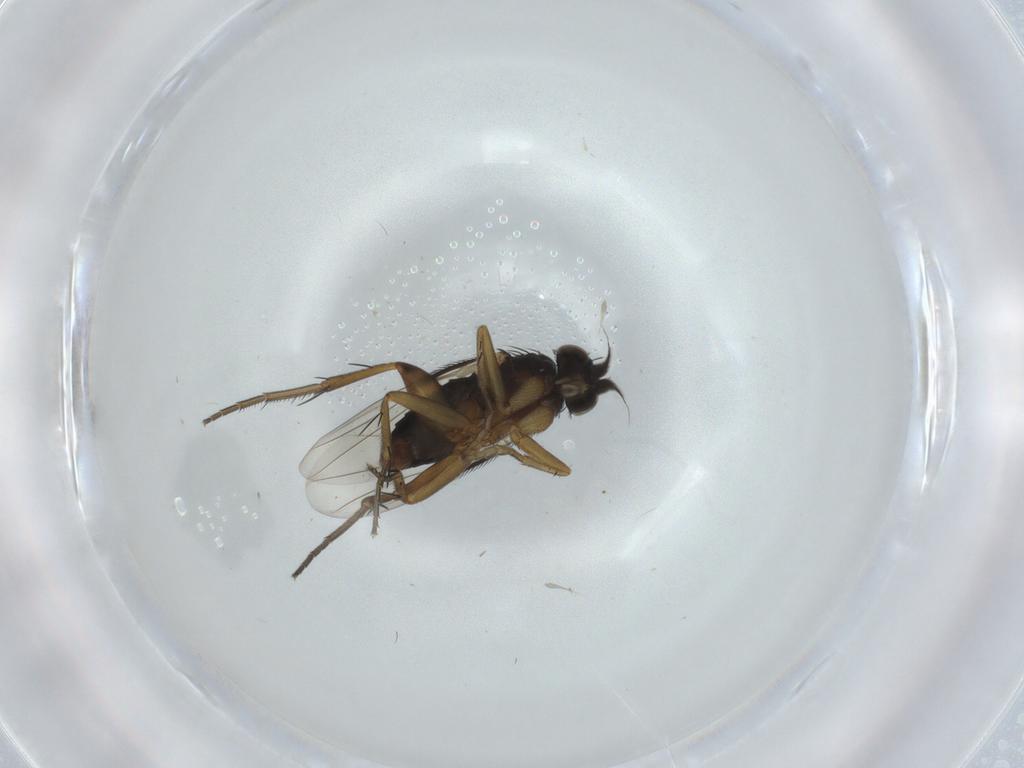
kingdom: Animalia
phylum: Arthropoda
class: Insecta
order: Diptera
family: Phoridae
